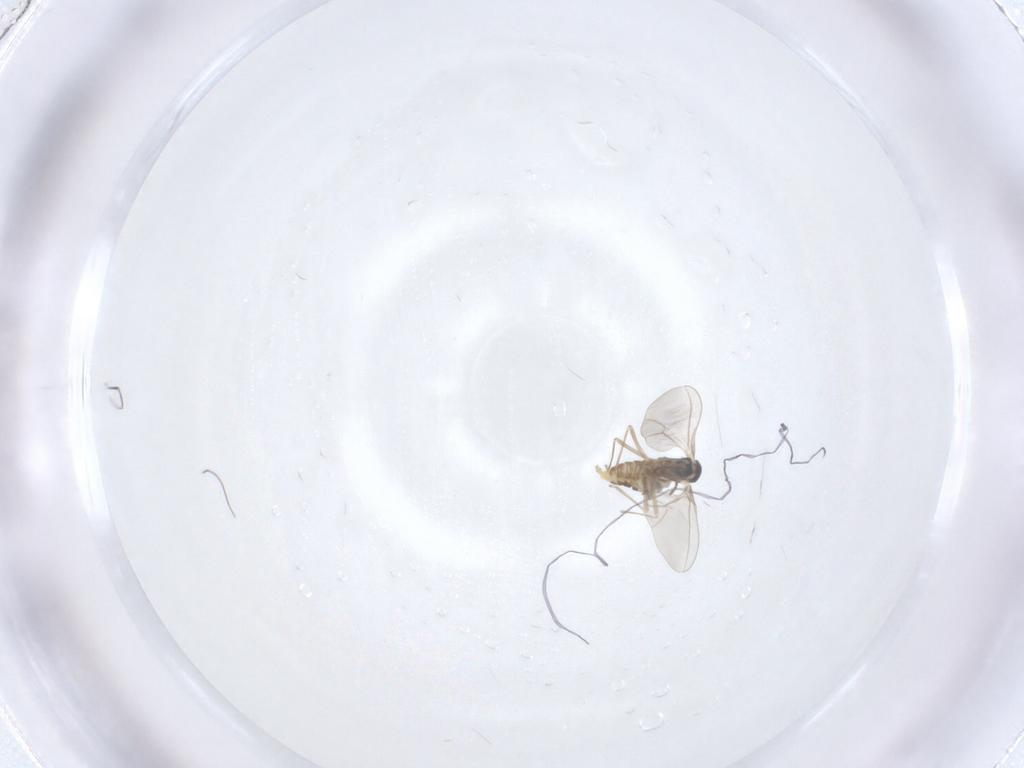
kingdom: Animalia
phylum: Arthropoda
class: Insecta
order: Diptera
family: Cecidomyiidae
